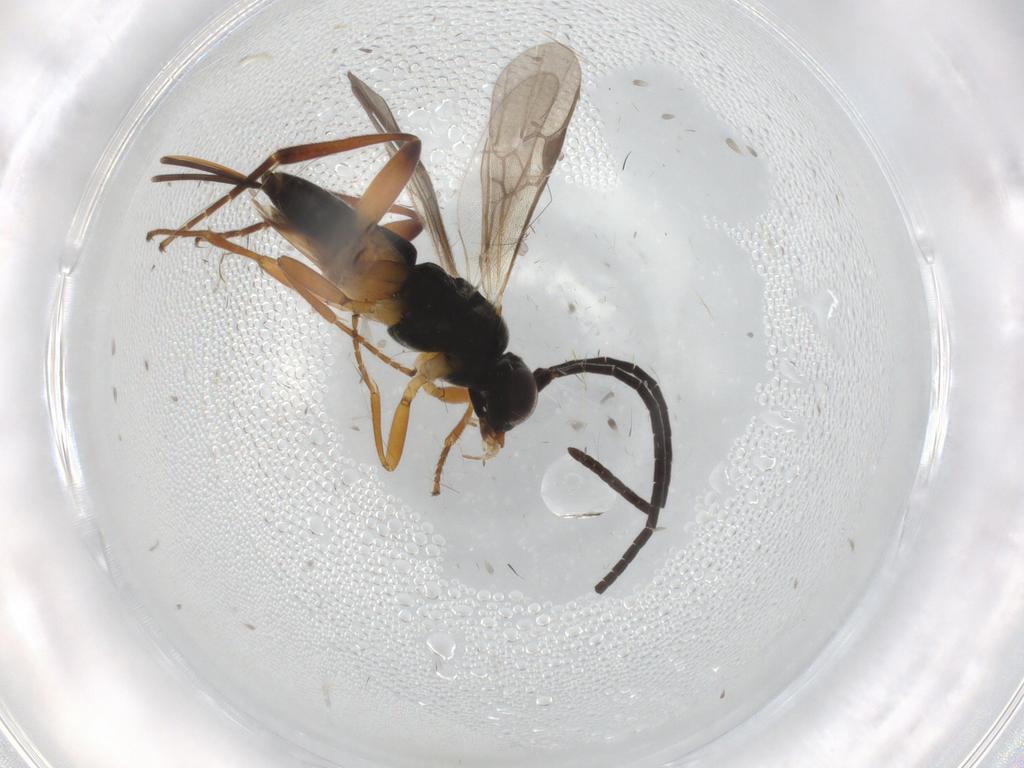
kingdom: Animalia
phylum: Arthropoda
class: Insecta
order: Hymenoptera
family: Braconidae
